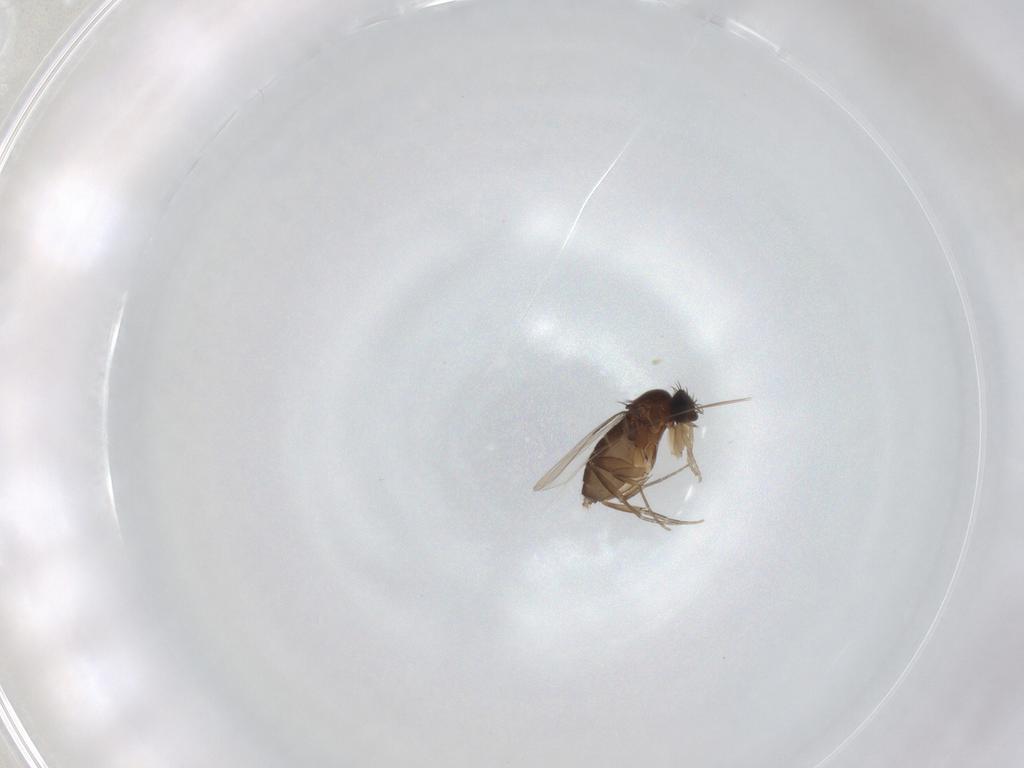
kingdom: Animalia
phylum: Arthropoda
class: Insecta
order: Diptera
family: Phoridae
